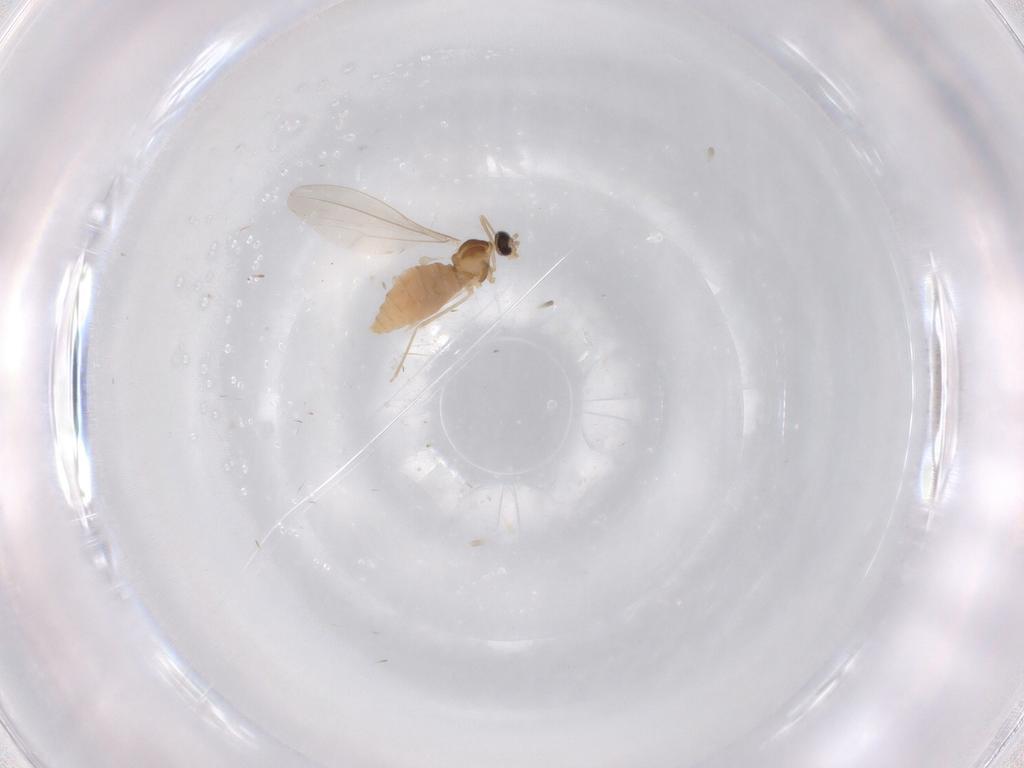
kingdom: Animalia
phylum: Arthropoda
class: Insecta
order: Diptera
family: Cecidomyiidae
